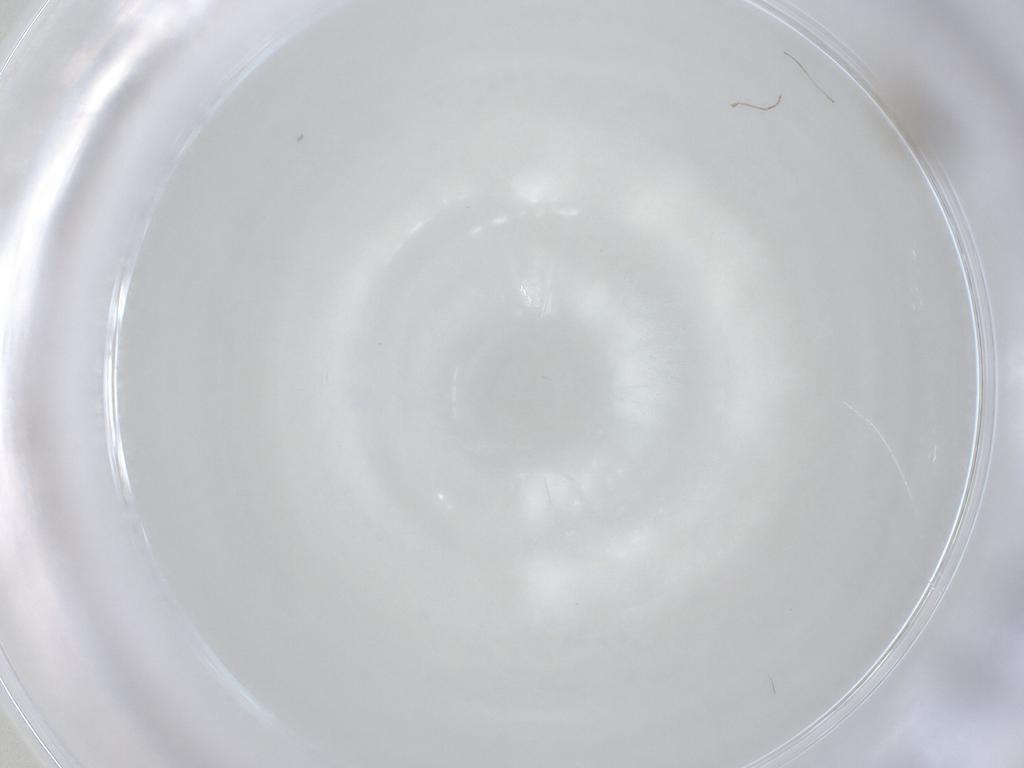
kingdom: Animalia
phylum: Arthropoda
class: Insecta
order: Diptera
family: Cecidomyiidae
